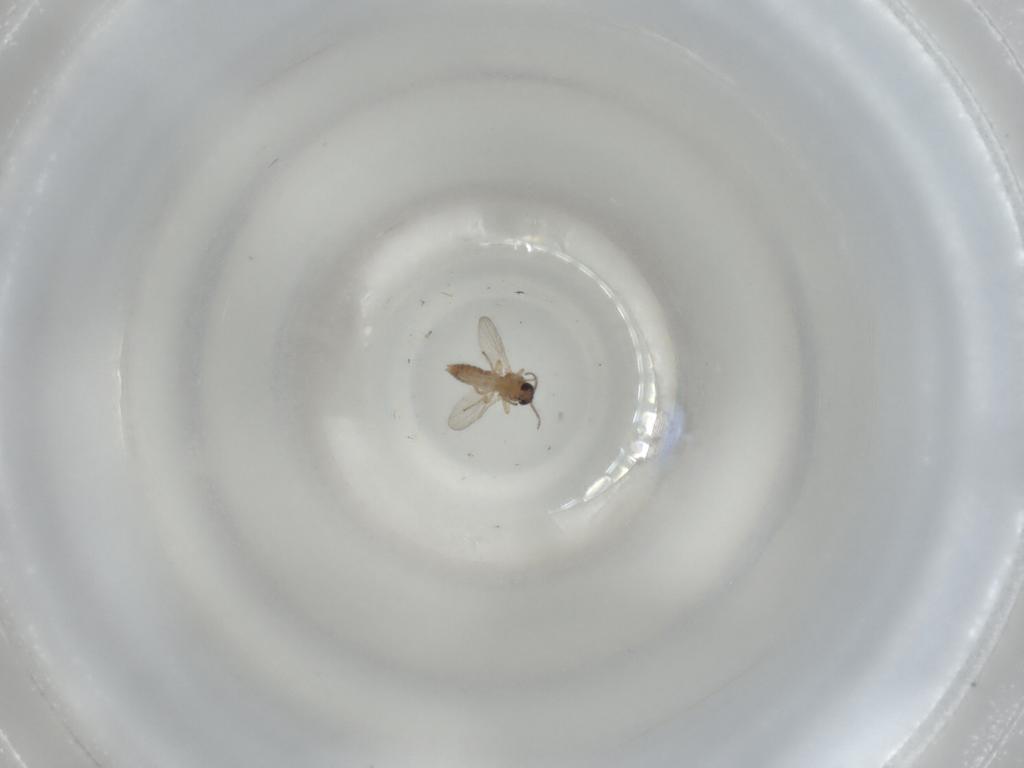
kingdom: Animalia
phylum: Arthropoda
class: Insecta
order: Diptera
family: Ceratopogonidae
